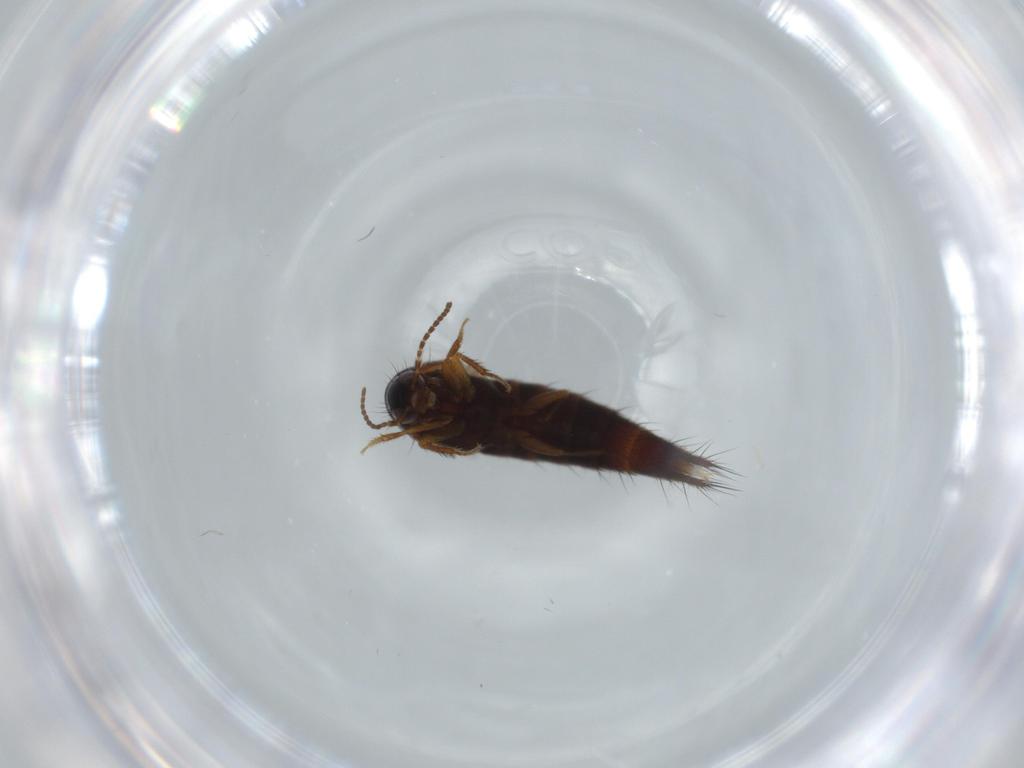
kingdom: Animalia
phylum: Arthropoda
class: Insecta
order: Coleoptera
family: Staphylinidae
